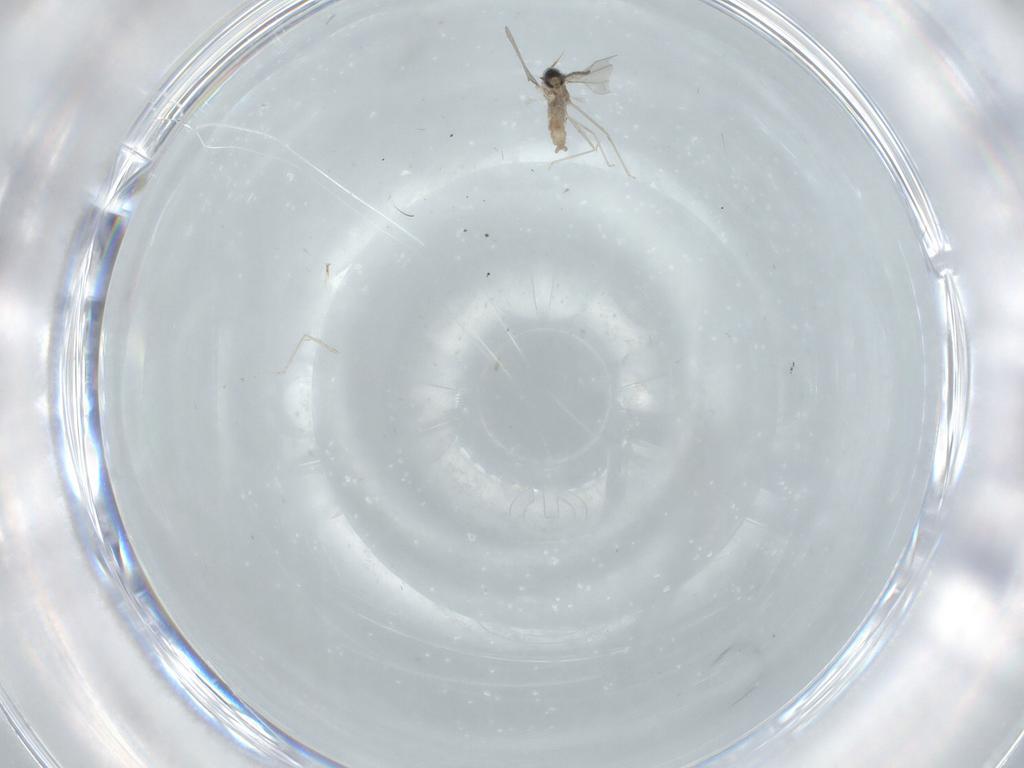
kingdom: Animalia
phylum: Arthropoda
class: Insecta
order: Diptera
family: Cecidomyiidae
